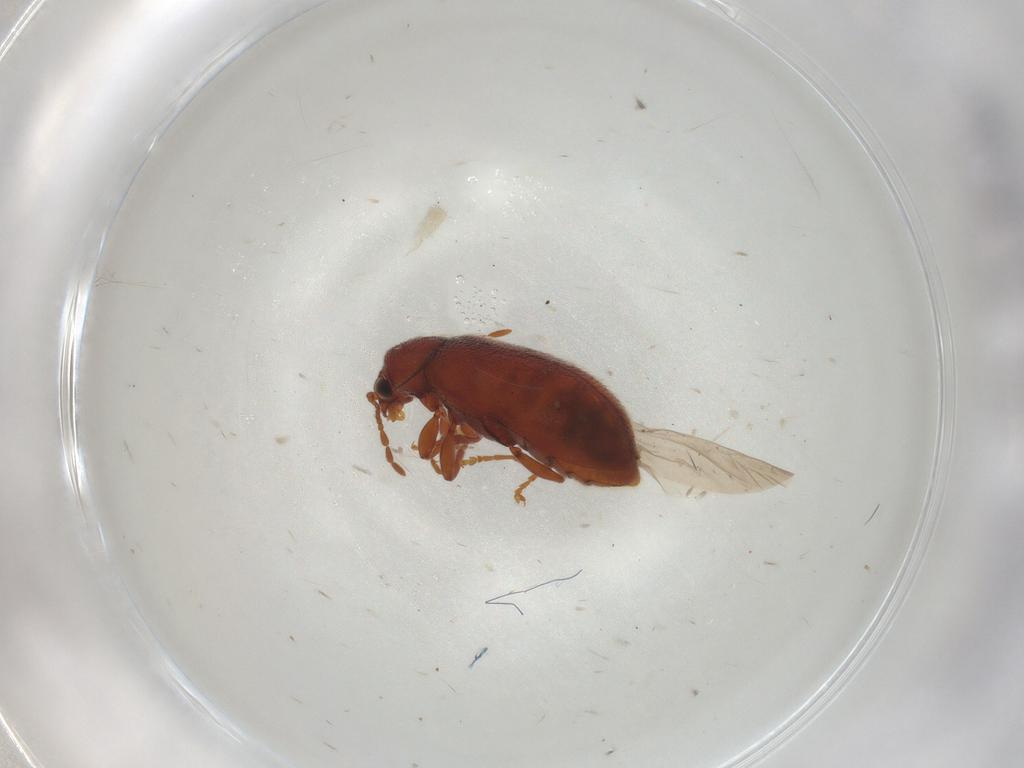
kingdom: Animalia
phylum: Arthropoda
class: Insecta
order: Coleoptera
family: Ptinidae
